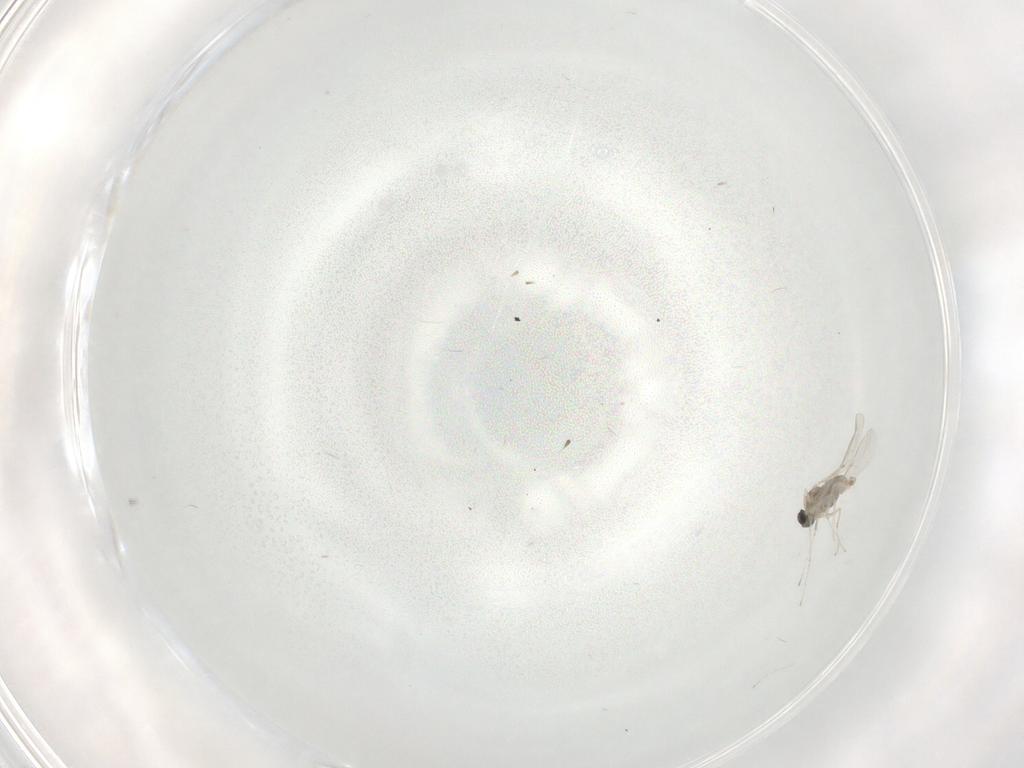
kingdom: Animalia
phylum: Arthropoda
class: Insecta
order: Diptera
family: Cecidomyiidae
